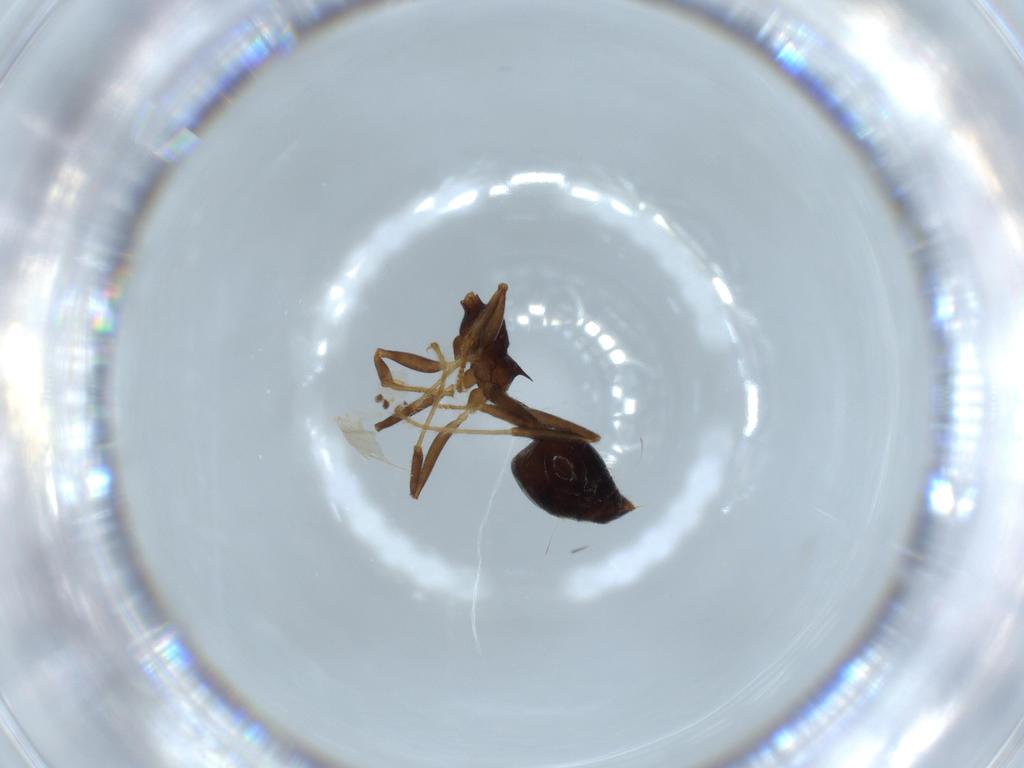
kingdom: Animalia
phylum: Arthropoda
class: Insecta
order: Hymenoptera
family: Formicidae
